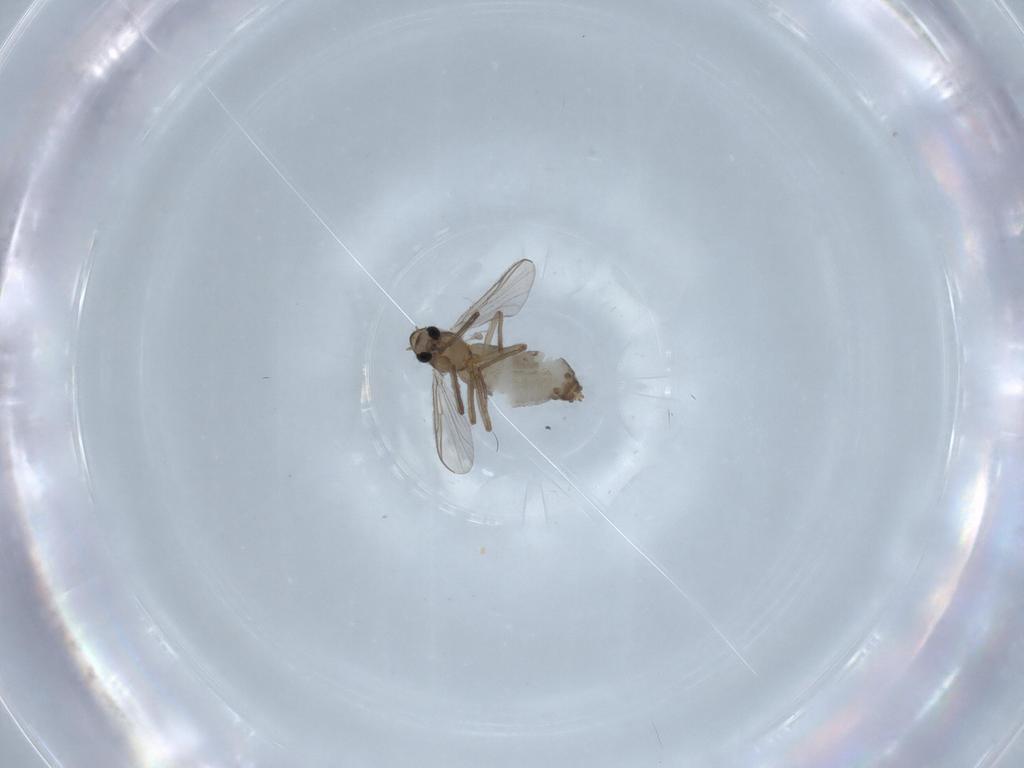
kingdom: Animalia
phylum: Arthropoda
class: Insecta
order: Diptera
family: Phoridae
